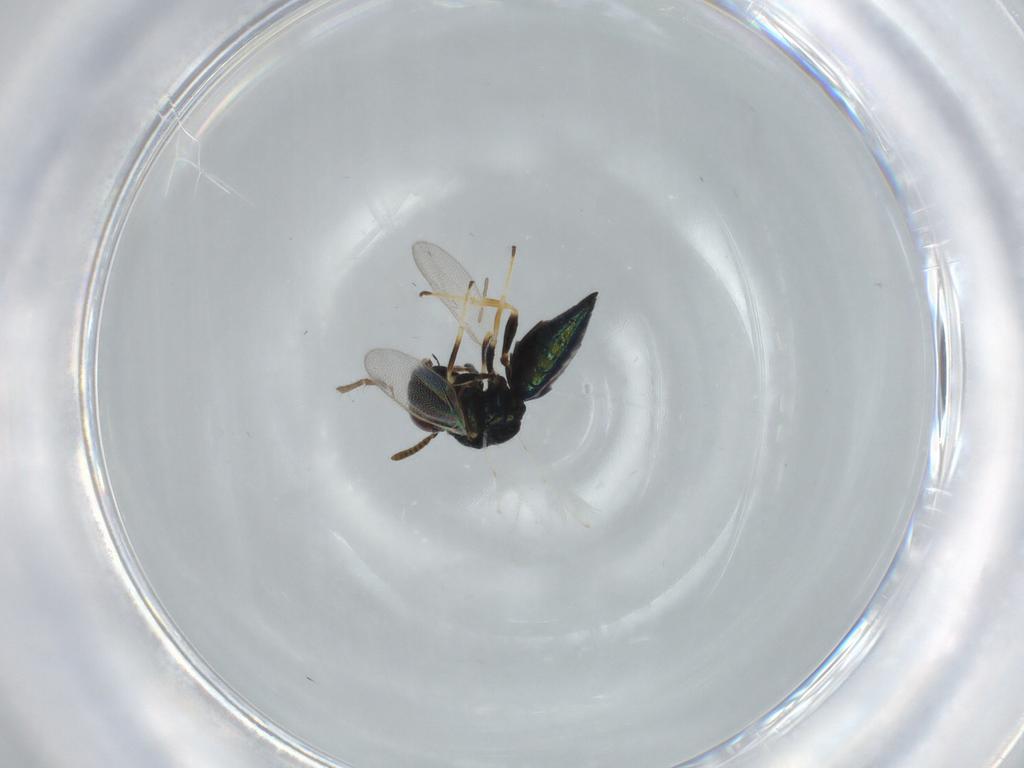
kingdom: Animalia
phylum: Arthropoda
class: Insecta
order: Hymenoptera
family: Pteromalidae
